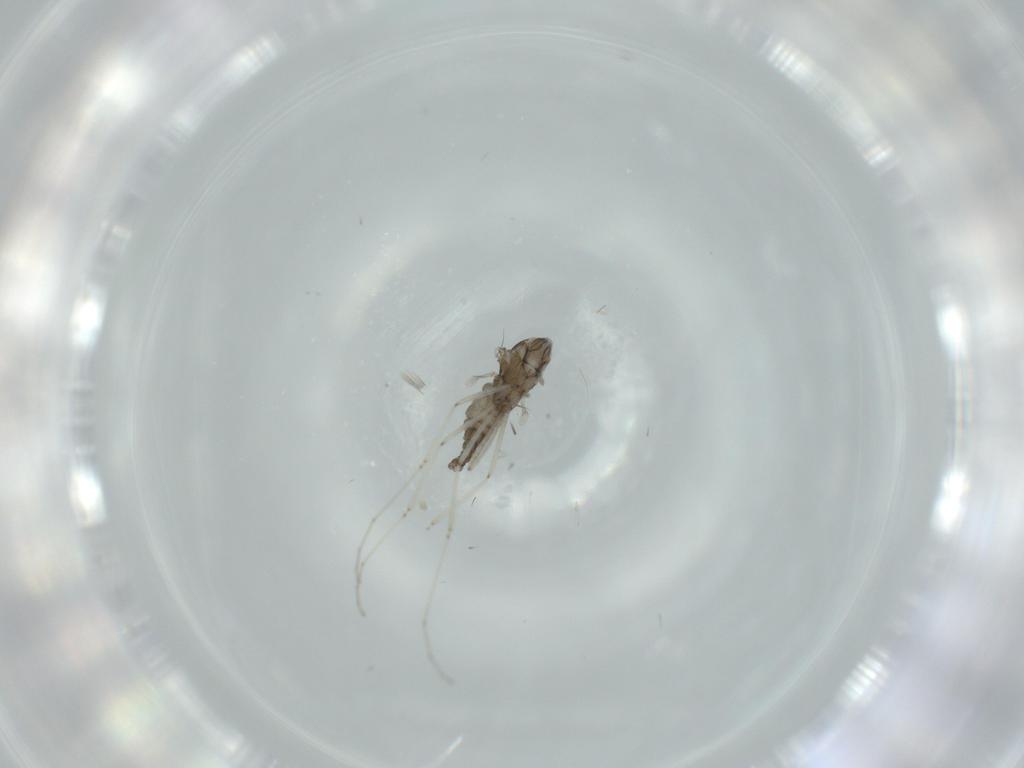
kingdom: Animalia
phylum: Arthropoda
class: Insecta
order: Diptera
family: Cecidomyiidae
